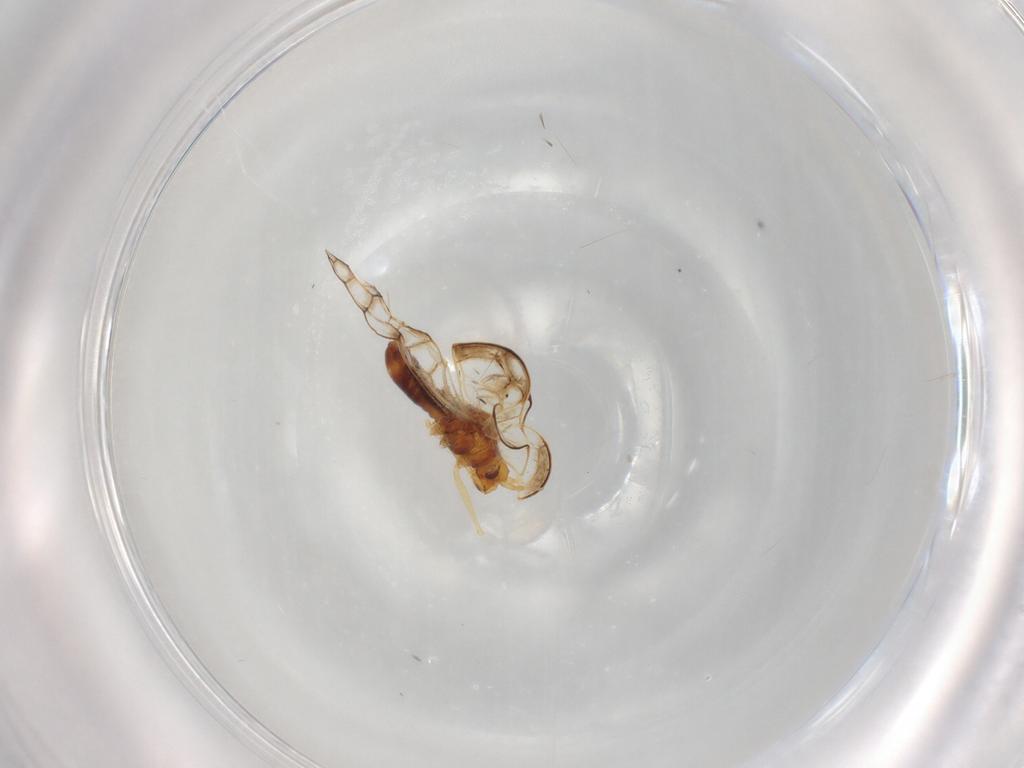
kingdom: Animalia
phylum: Arthropoda
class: Insecta
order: Hemiptera
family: Tingidae
